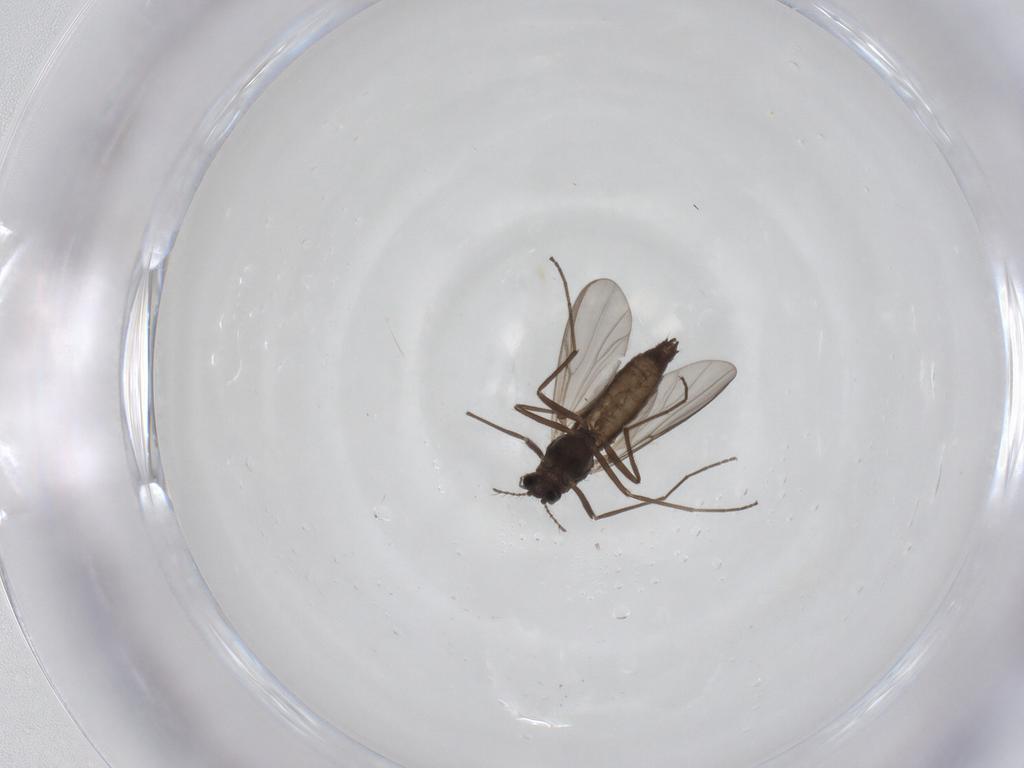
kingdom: Animalia
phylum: Arthropoda
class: Insecta
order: Diptera
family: Chironomidae
